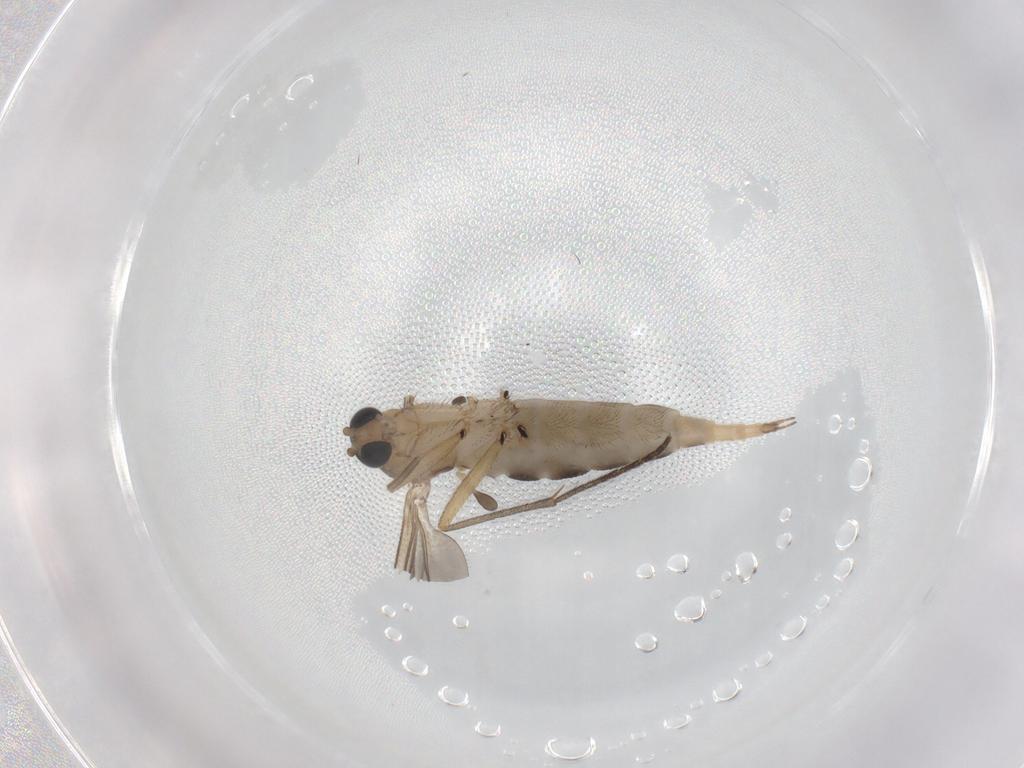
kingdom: Animalia
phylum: Arthropoda
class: Insecta
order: Diptera
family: Sciaridae
